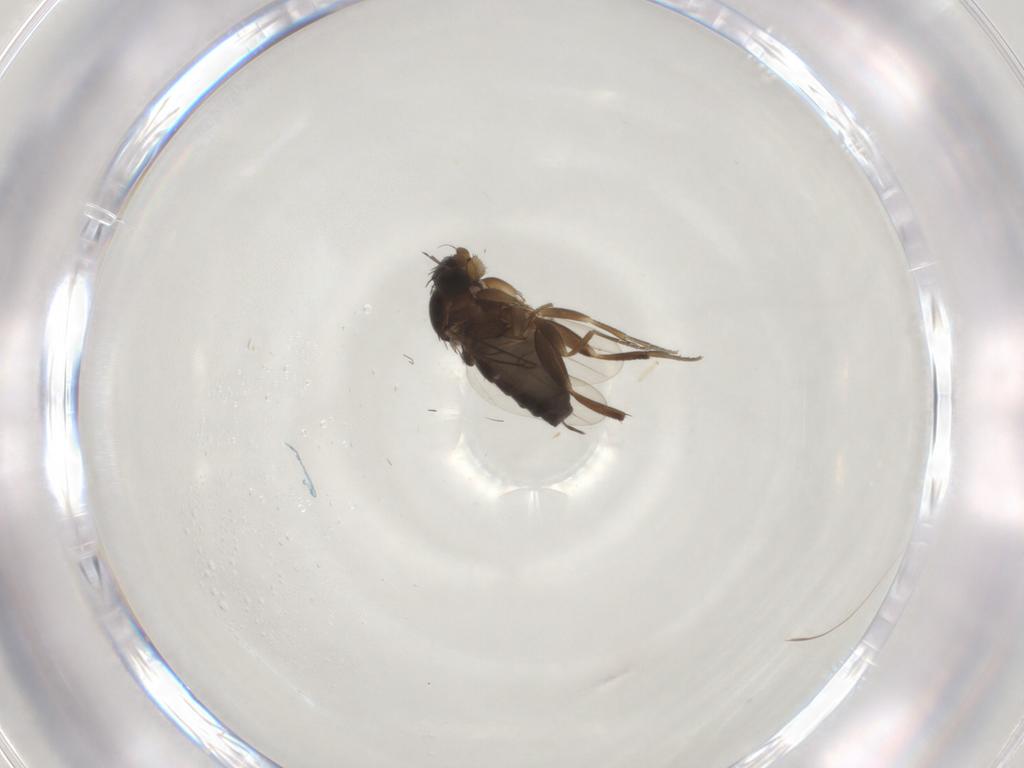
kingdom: Animalia
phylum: Arthropoda
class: Insecta
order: Diptera
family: Phoridae
